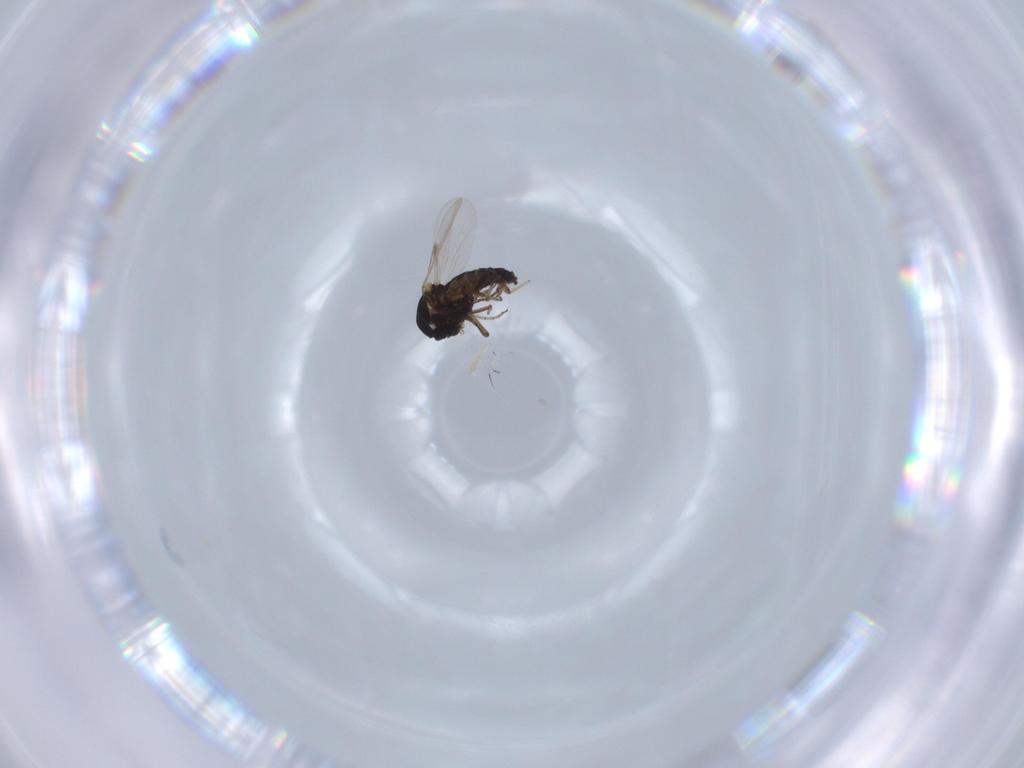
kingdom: Animalia
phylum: Arthropoda
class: Insecta
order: Diptera
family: Ceratopogonidae
